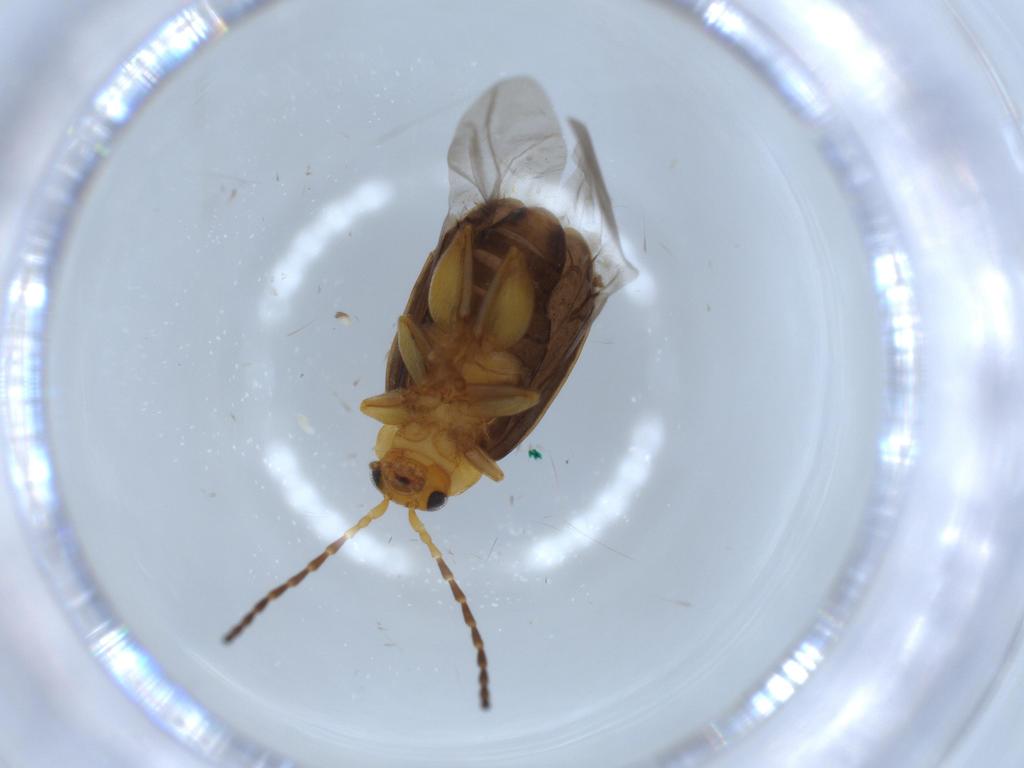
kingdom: Animalia
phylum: Arthropoda
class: Insecta
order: Coleoptera
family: Chrysomelidae
